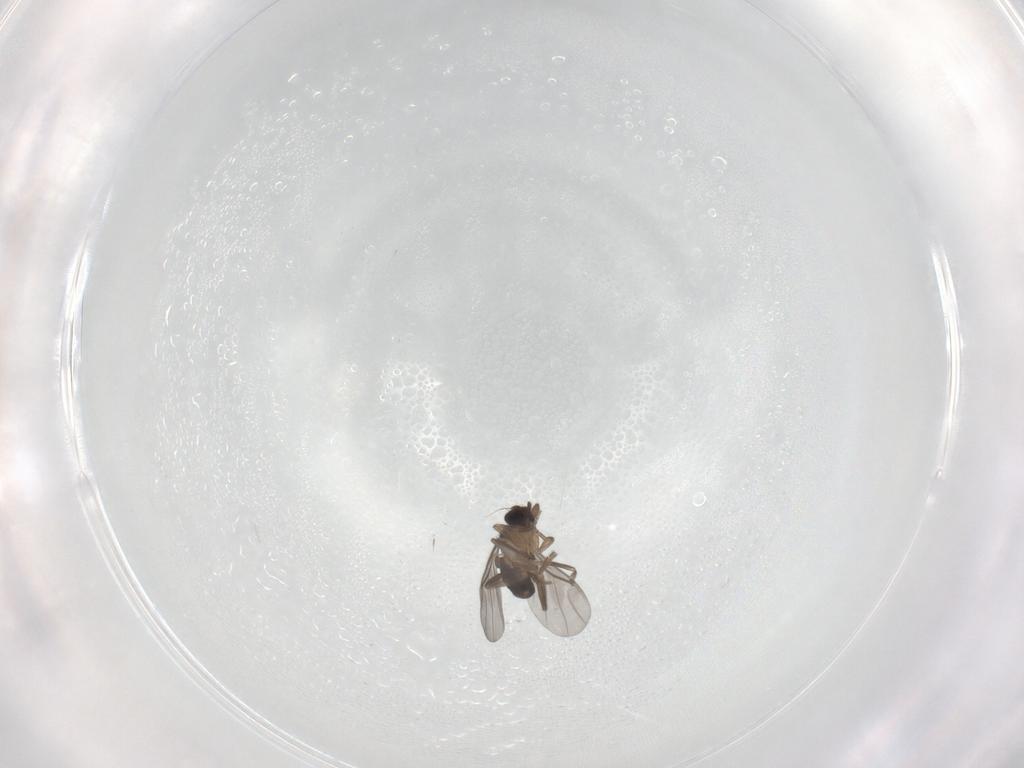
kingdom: Animalia
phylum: Arthropoda
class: Insecta
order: Diptera
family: Phoridae
